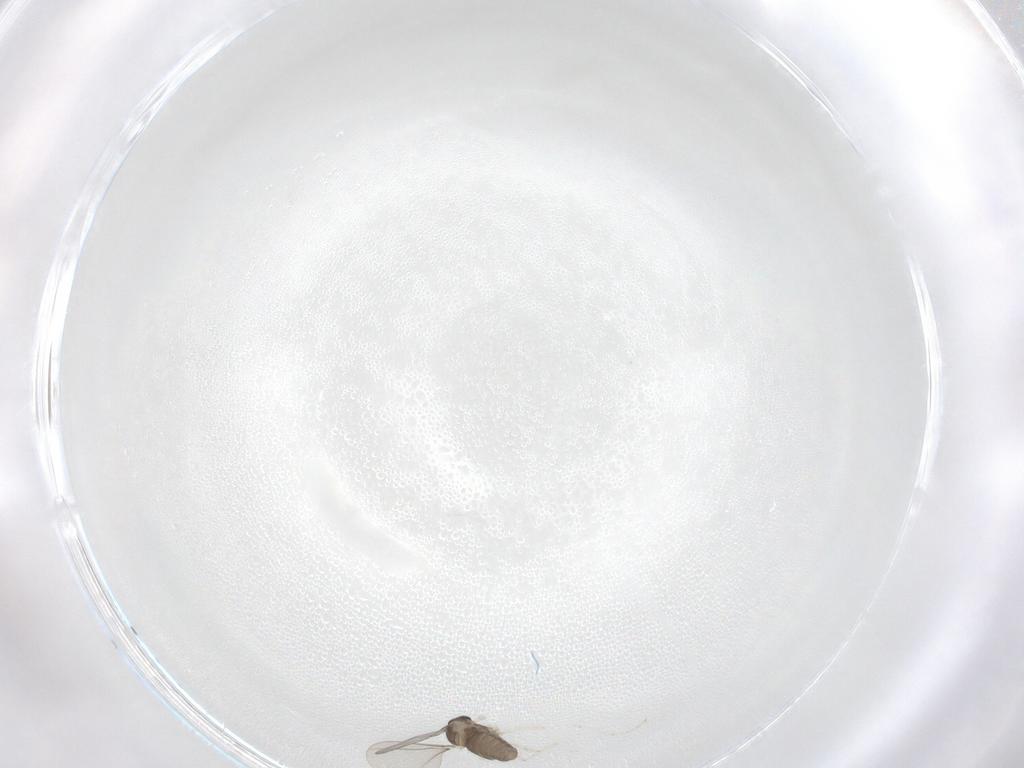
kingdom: Animalia
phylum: Arthropoda
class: Insecta
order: Diptera
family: Cecidomyiidae
